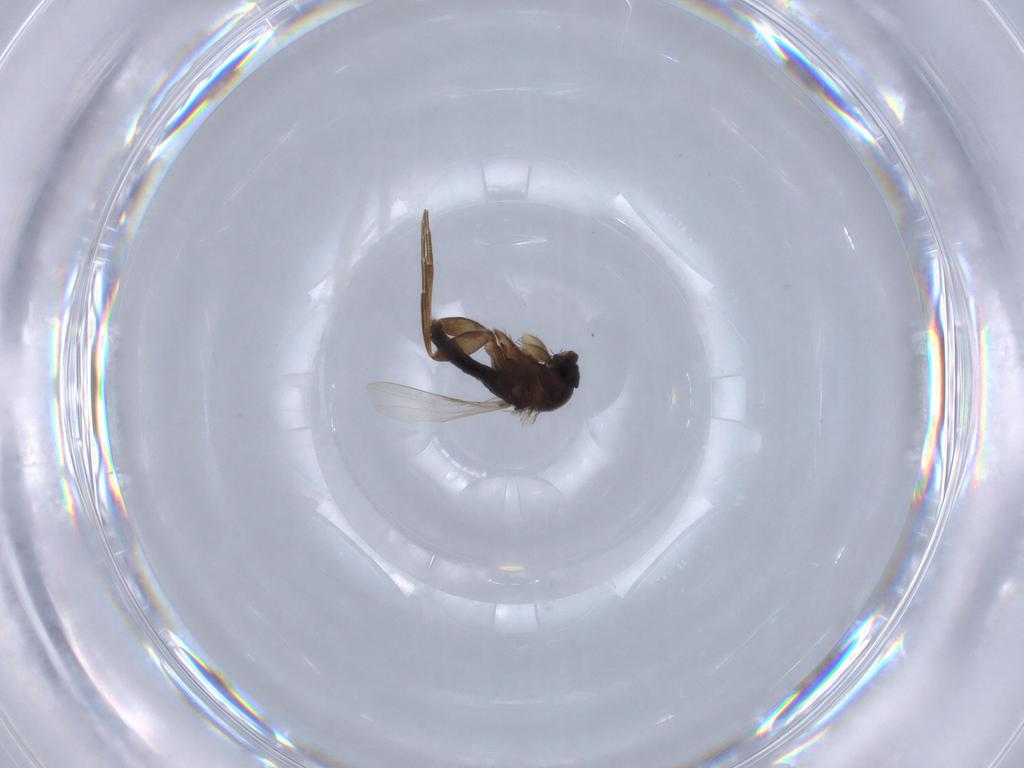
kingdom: Animalia
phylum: Arthropoda
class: Insecta
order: Diptera
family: Phoridae
